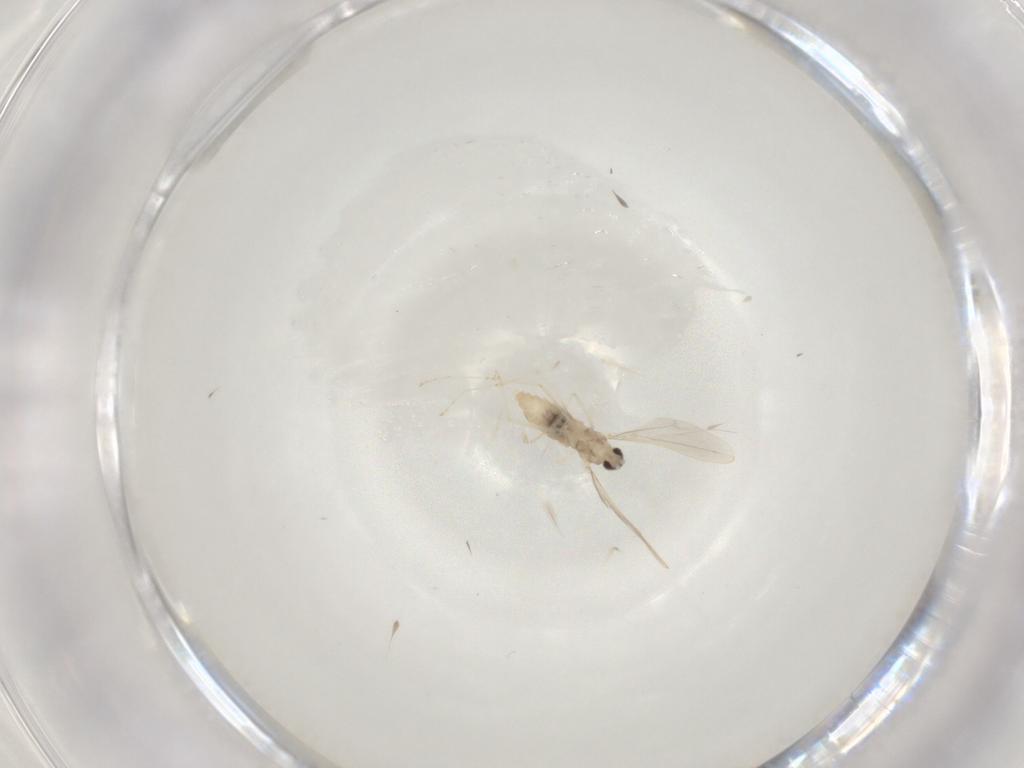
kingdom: Animalia
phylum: Arthropoda
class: Insecta
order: Diptera
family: Cecidomyiidae
